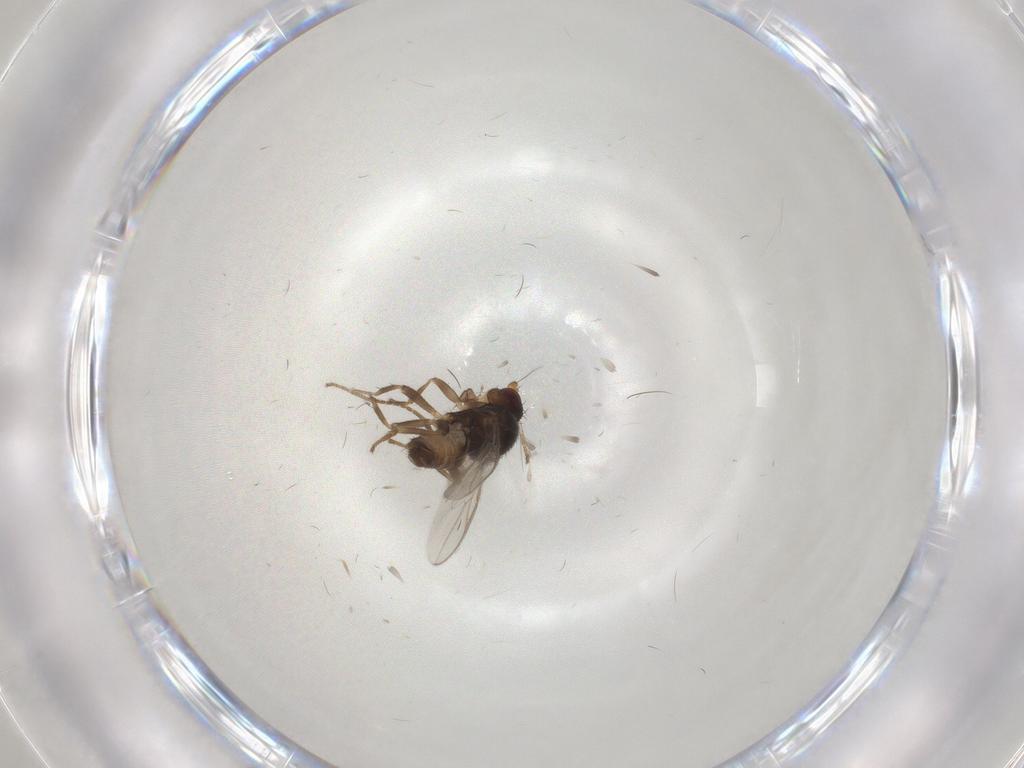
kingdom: Animalia
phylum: Arthropoda
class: Insecta
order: Diptera
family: Sphaeroceridae
